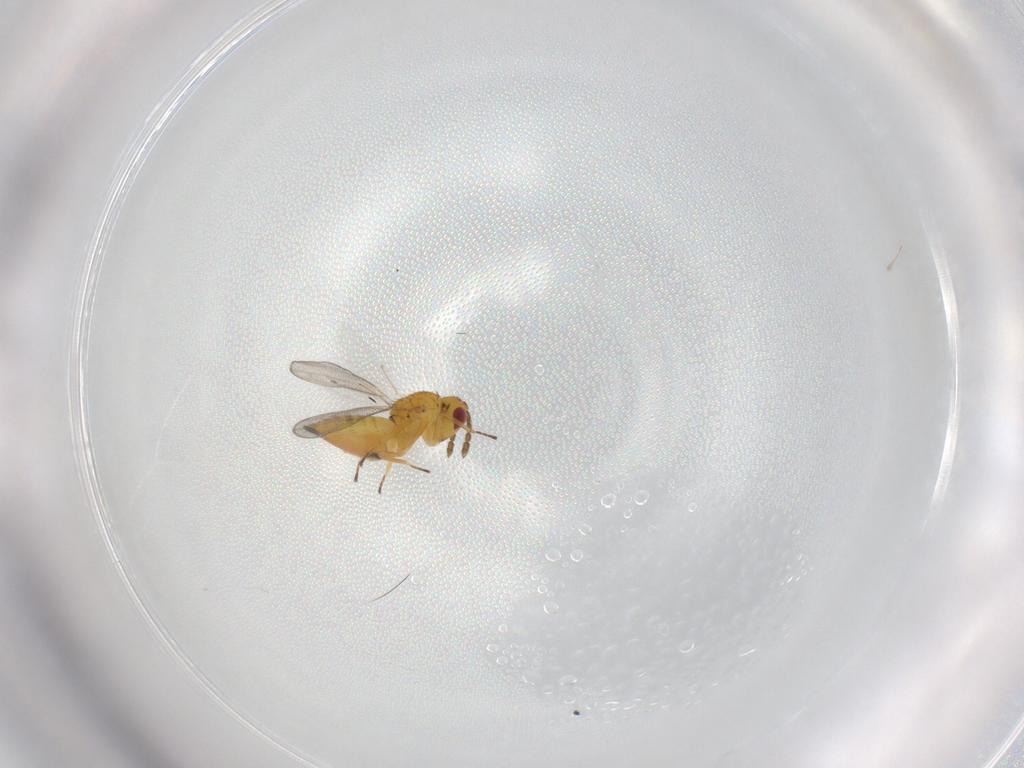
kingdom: Animalia
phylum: Arthropoda
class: Insecta
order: Hymenoptera
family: Eulophidae
